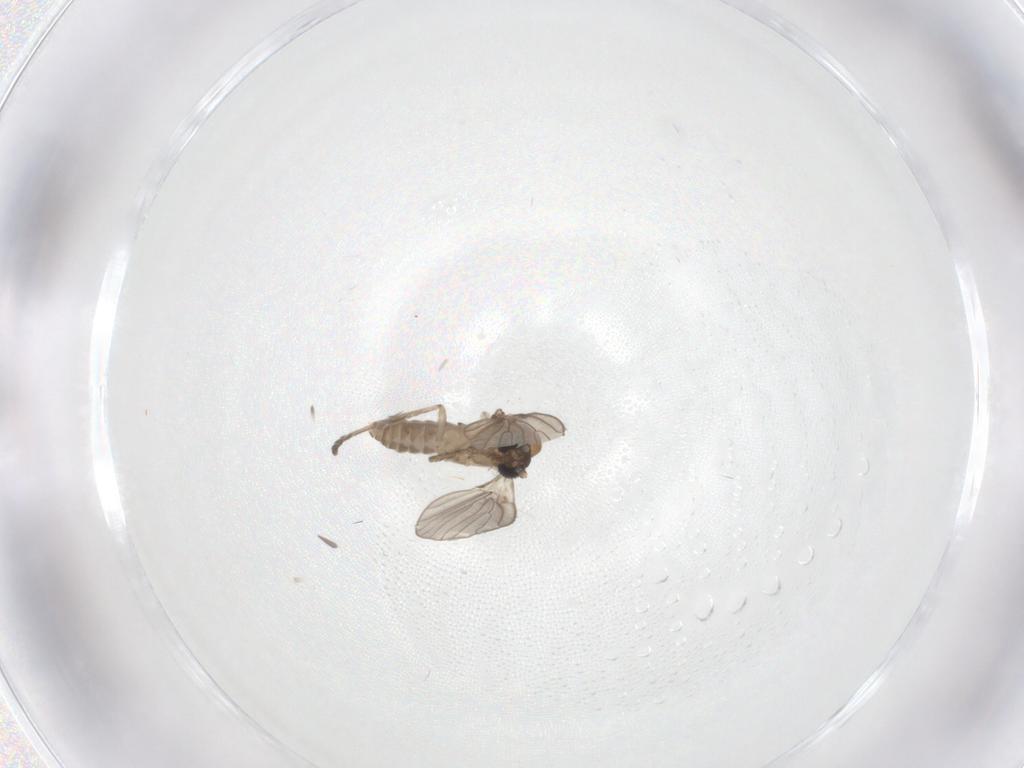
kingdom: Animalia
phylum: Arthropoda
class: Insecta
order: Diptera
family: Psychodidae
